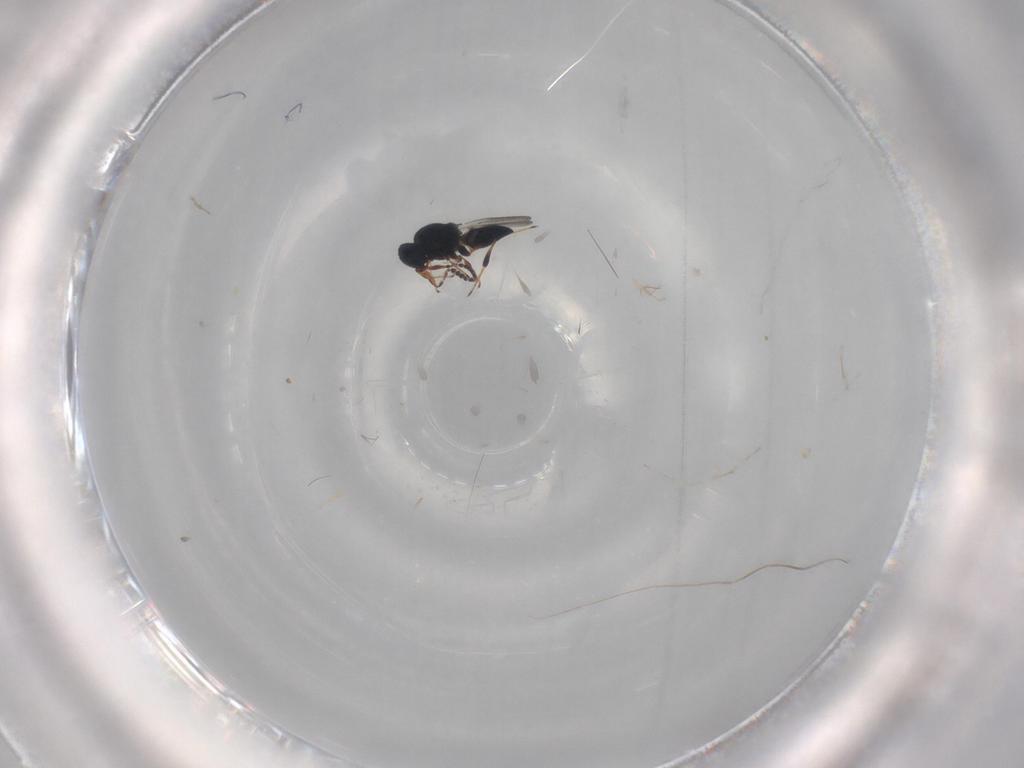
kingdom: Animalia
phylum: Arthropoda
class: Insecta
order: Hymenoptera
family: Platygastridae
